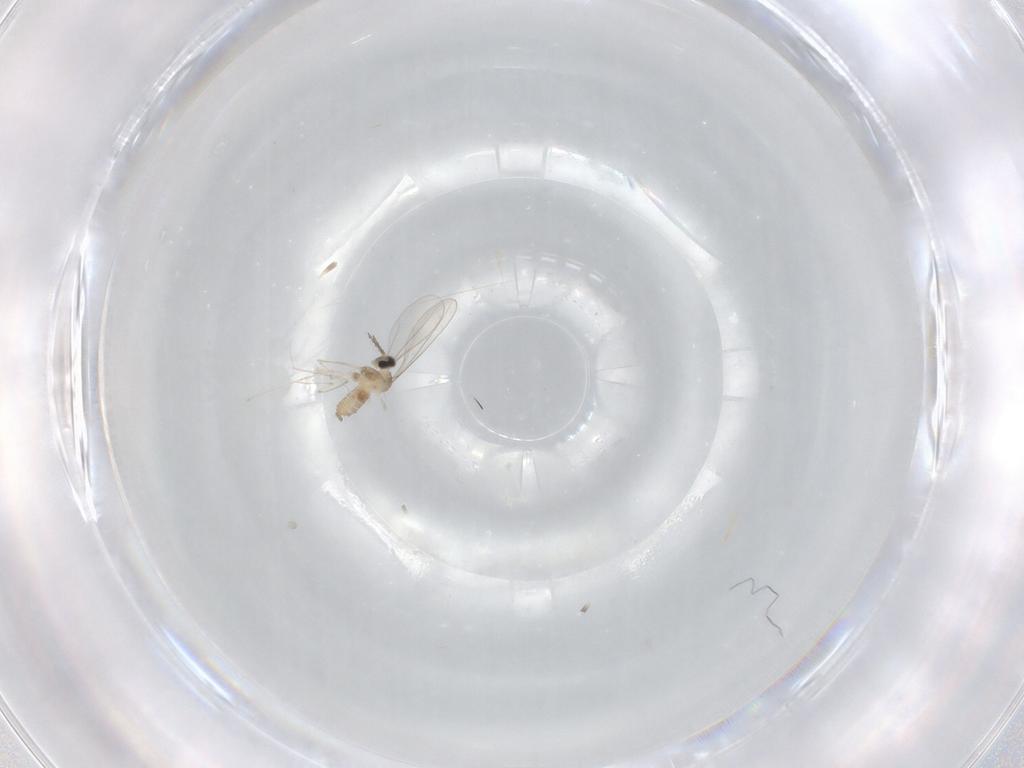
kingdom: Animalia
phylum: Arthropoda
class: Insecta
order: Diptera
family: Cecidomyiidae
